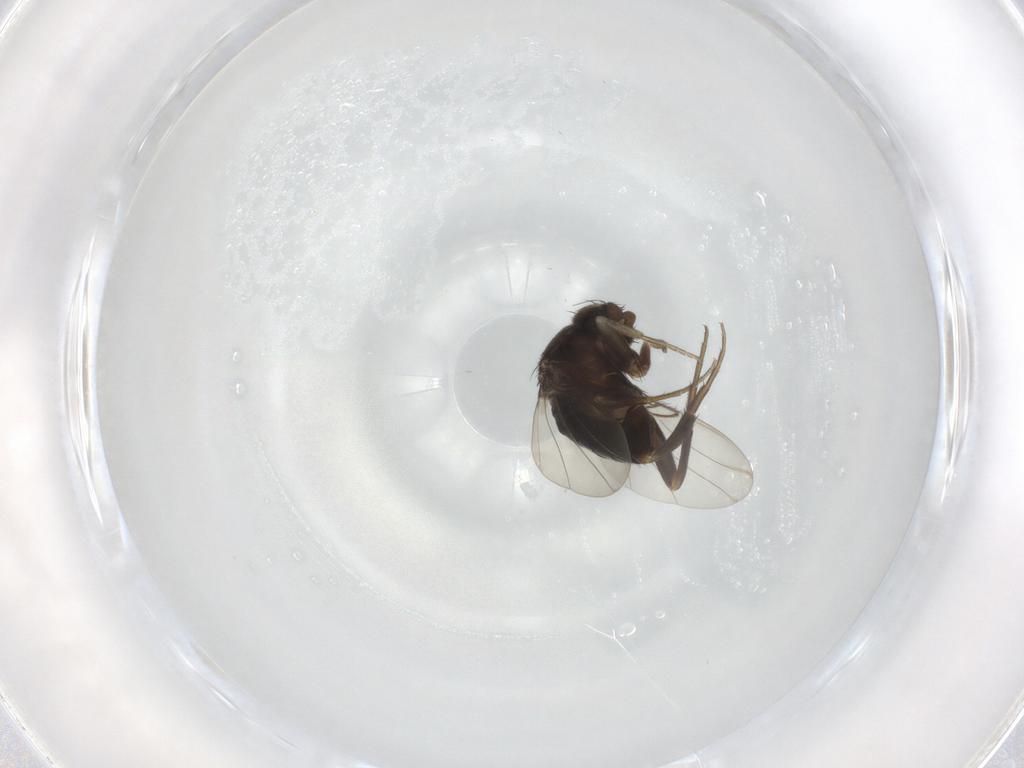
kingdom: Animalia
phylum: Arthropoda
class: Insecta
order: Diptera
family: Phoridae
